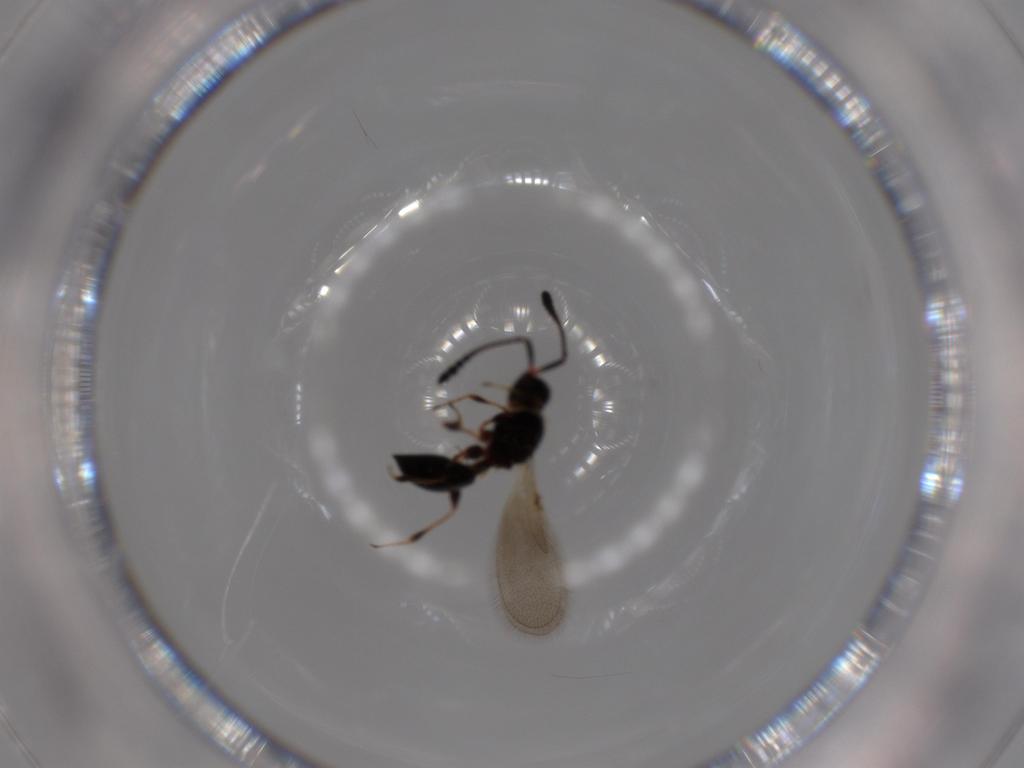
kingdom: Animalia
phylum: Arthropoda
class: Insecta
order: Hymenoptera
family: Diapriidae
